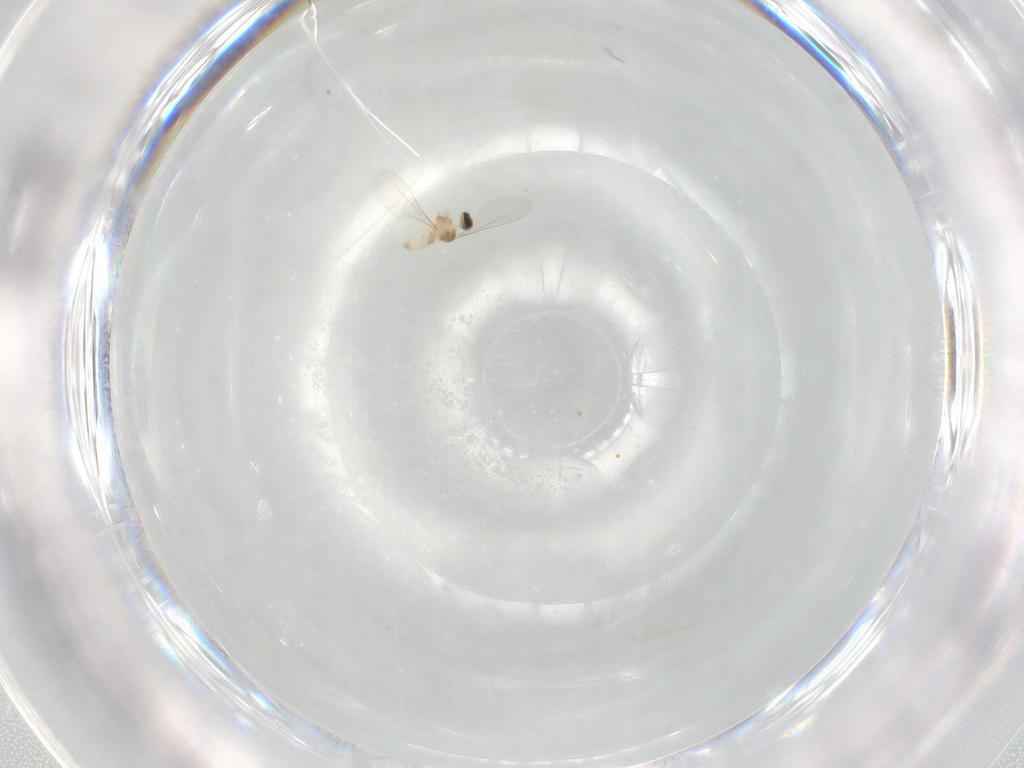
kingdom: Animalia
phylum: Arthropoda
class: Insecta
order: Diptera
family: Cecidomyiidae
